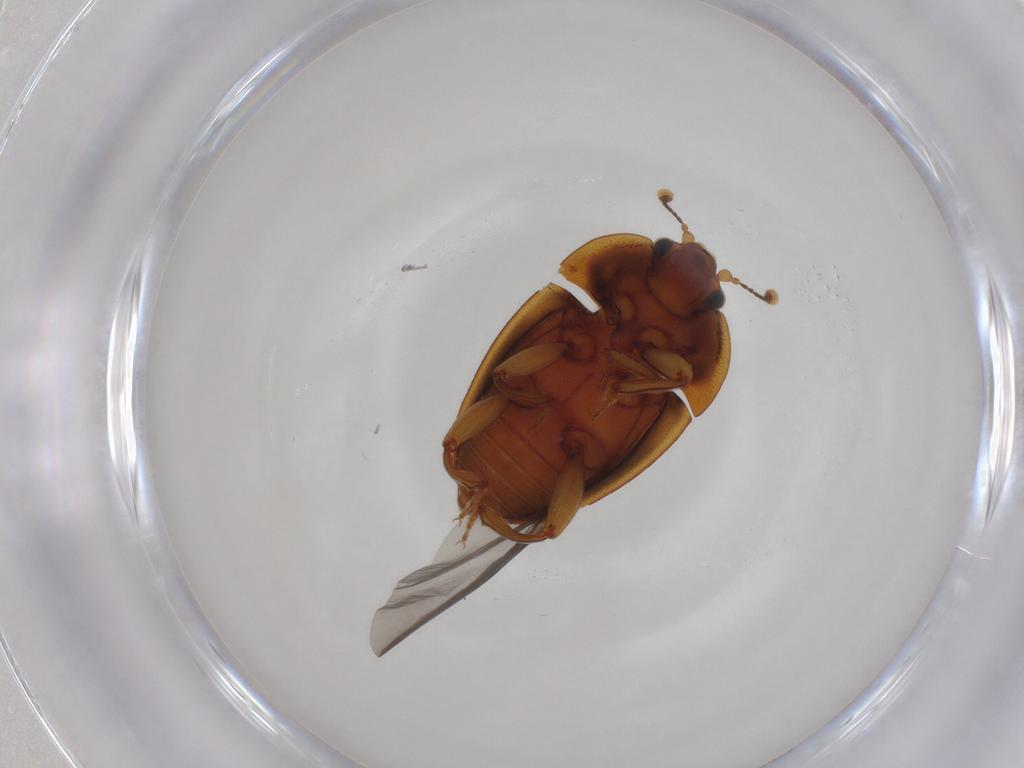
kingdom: Animalia
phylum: Arthropoda
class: Insecta
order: Coleoptera
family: Nitidulidae
